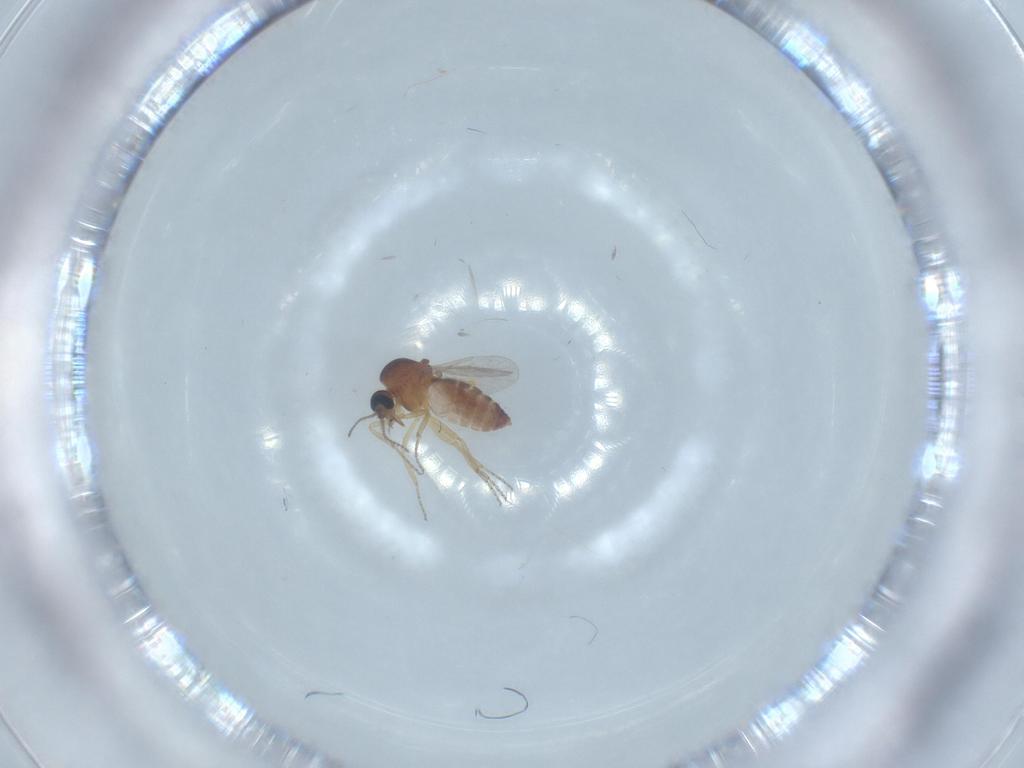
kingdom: Animalia
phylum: Arthropoda
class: Insecta
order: Diptera
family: Ceratopogonidae
